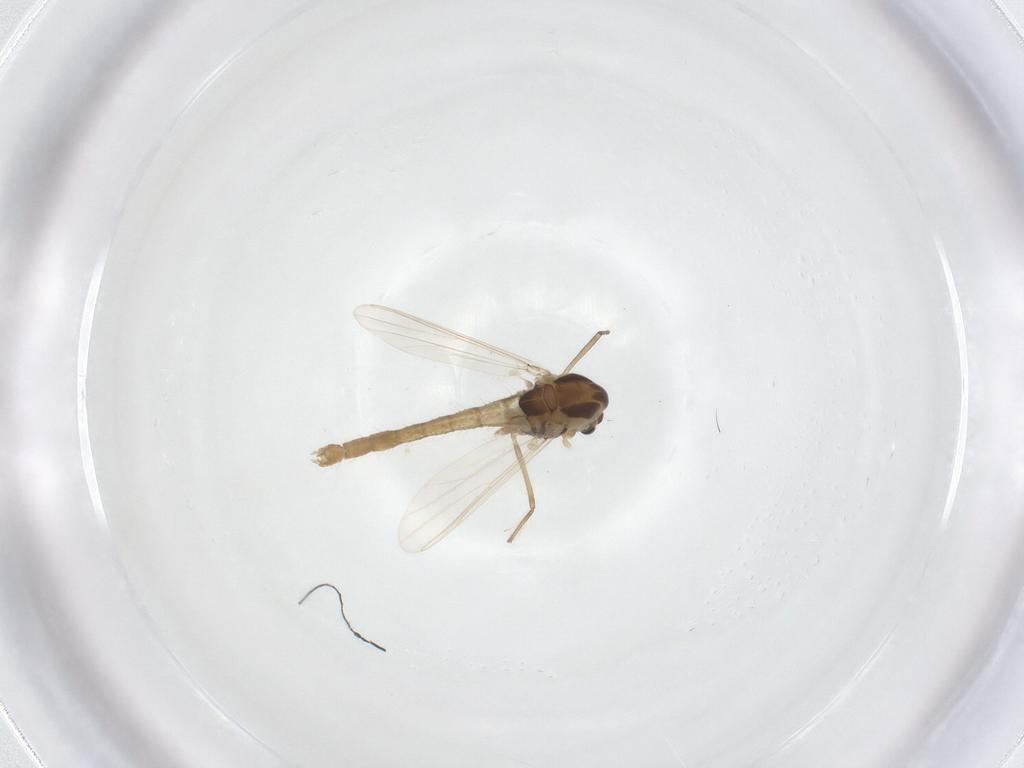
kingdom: Animalia
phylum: Arthropoda
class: Insecta
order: Diptera
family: Chironomidae
